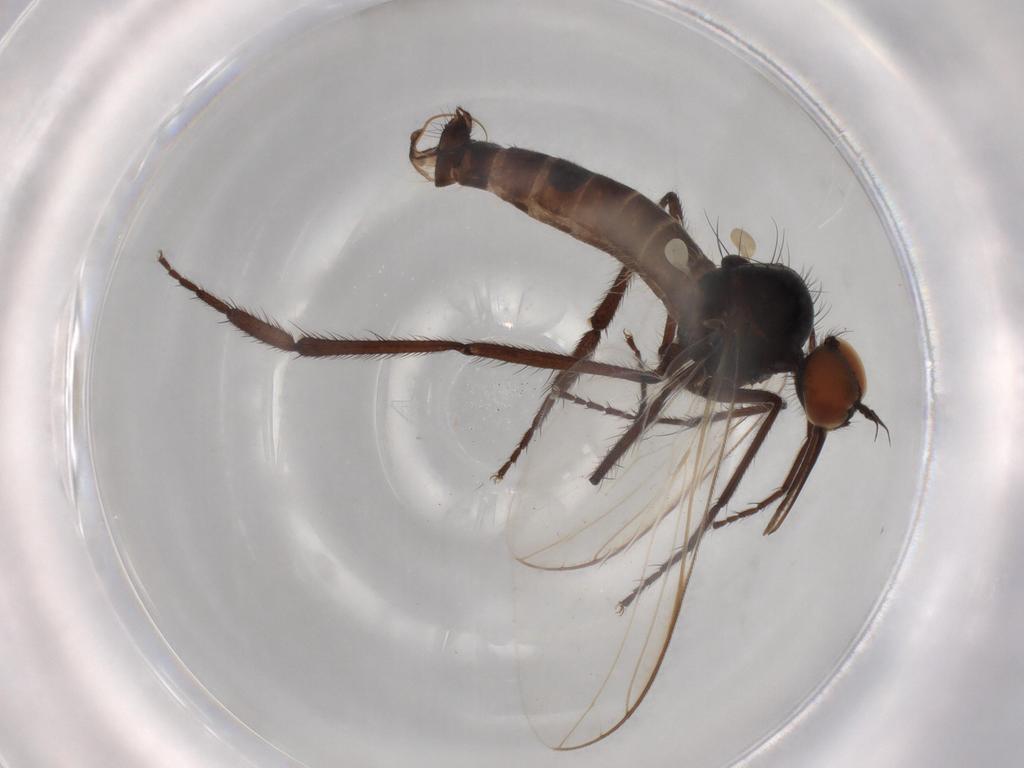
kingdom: Animalia
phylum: Arthropoda
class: Insecta
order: Diptera
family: Empididae
